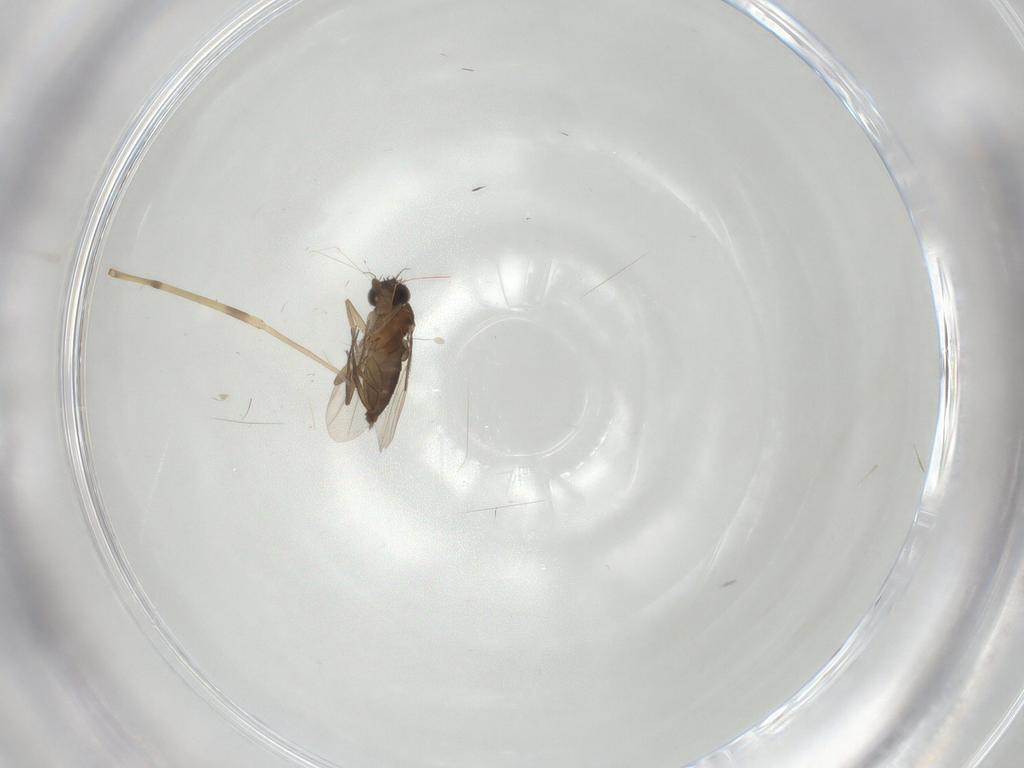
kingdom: Animalia
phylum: Arthropoda
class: Insecta
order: Diptera
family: Limoniidae
